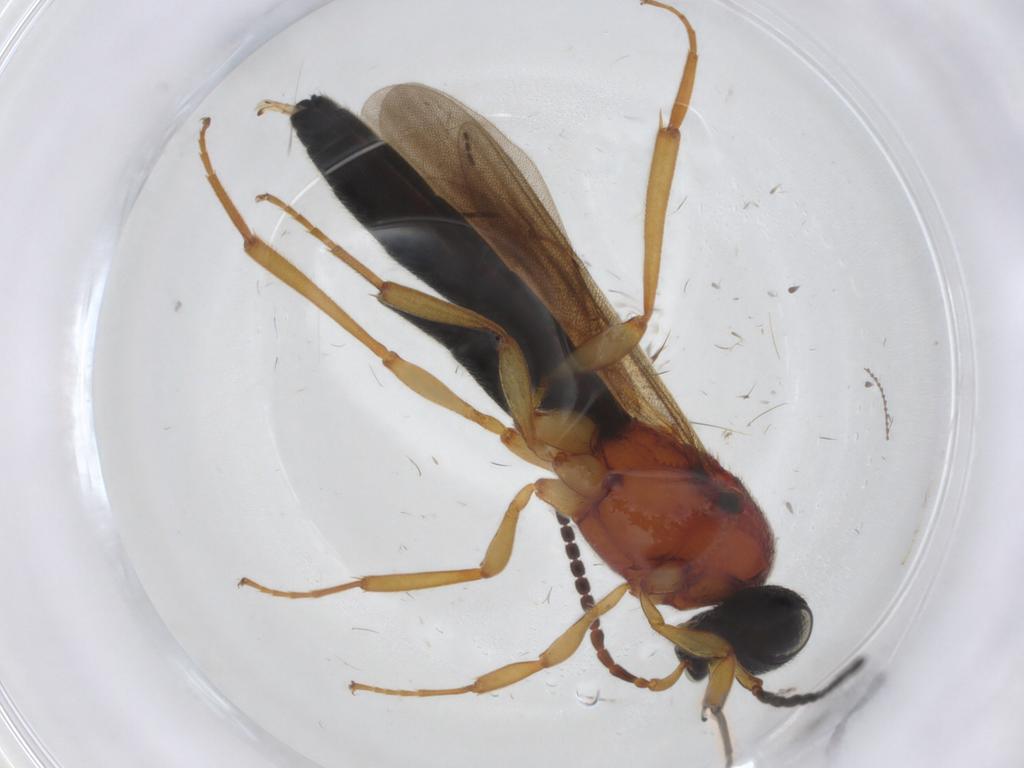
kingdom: Animalia
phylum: Arthropoda
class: Insecta
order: Hymenoptera
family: Scelionidae
